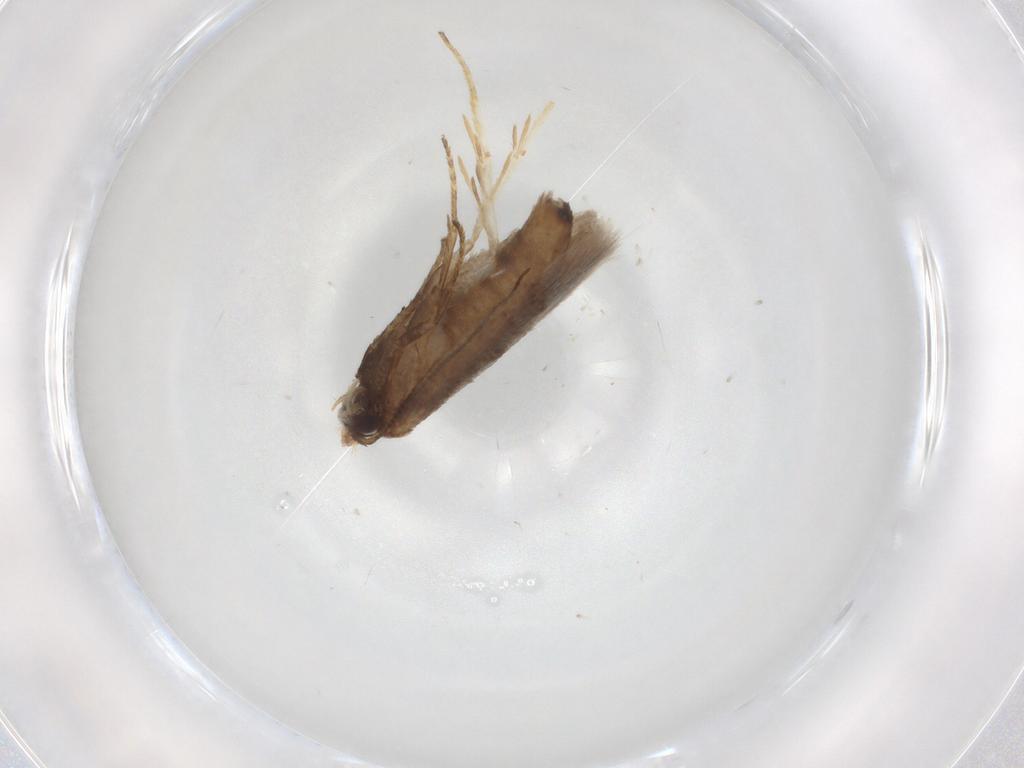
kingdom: Animalia
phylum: Arthropoda
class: Insecta
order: Lepidoptera
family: Nepticulidae
